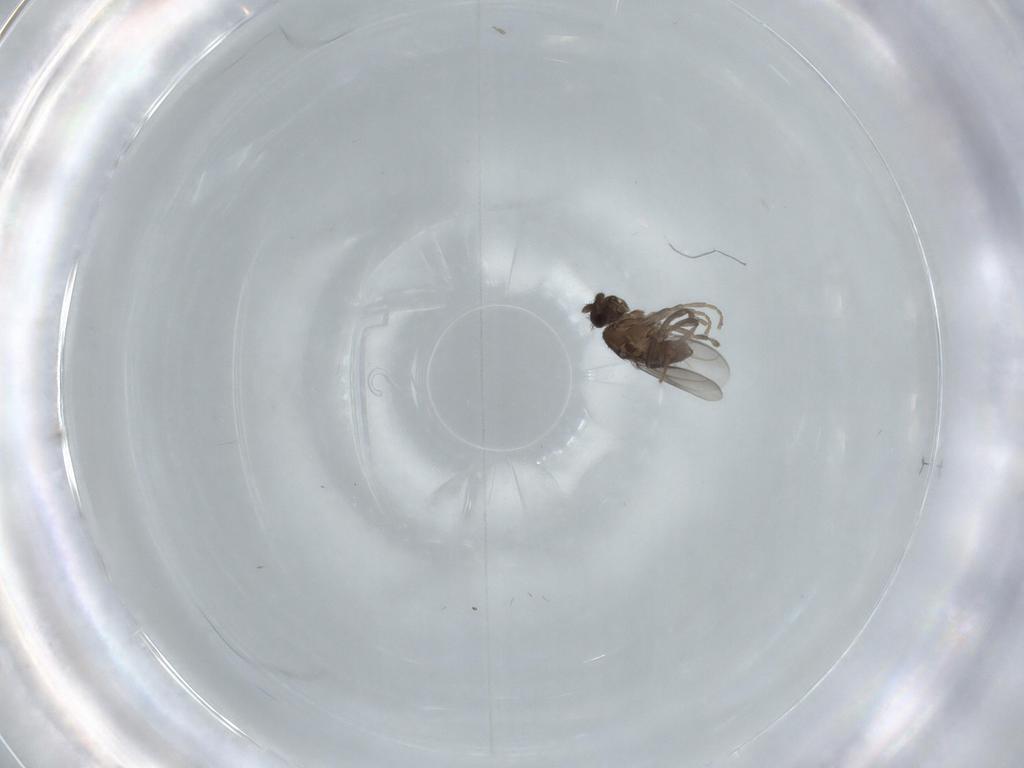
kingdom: Animalia
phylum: Arthropoda
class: Insecta
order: Diptera
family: Sphaeroceridae
